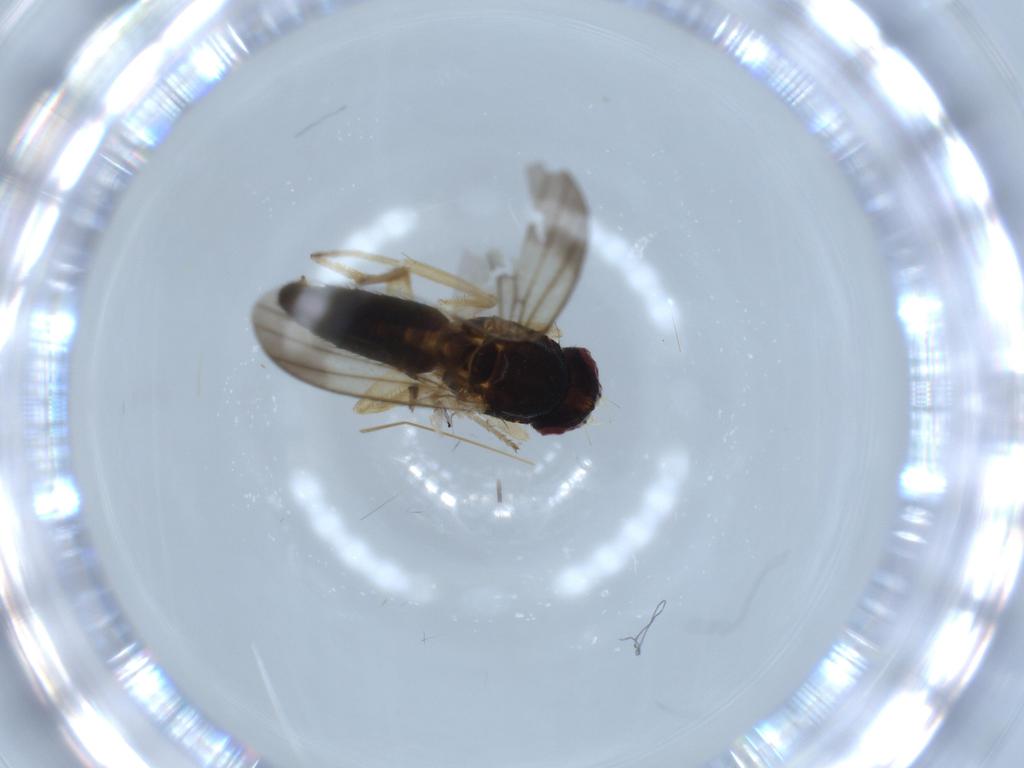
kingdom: Animalia
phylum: Arthropoda
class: Insecta
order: Diptera
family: Clusiidae
